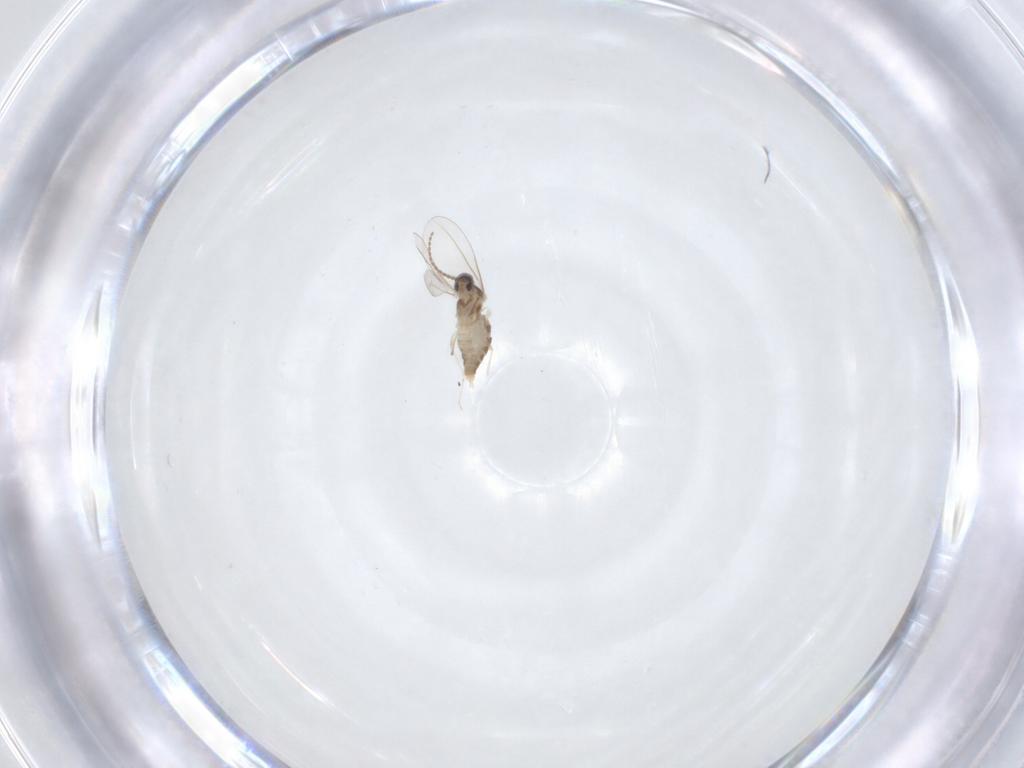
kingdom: Animalia
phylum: Arthropoda
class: Insecta
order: Diptera
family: Cecidomyiidae
